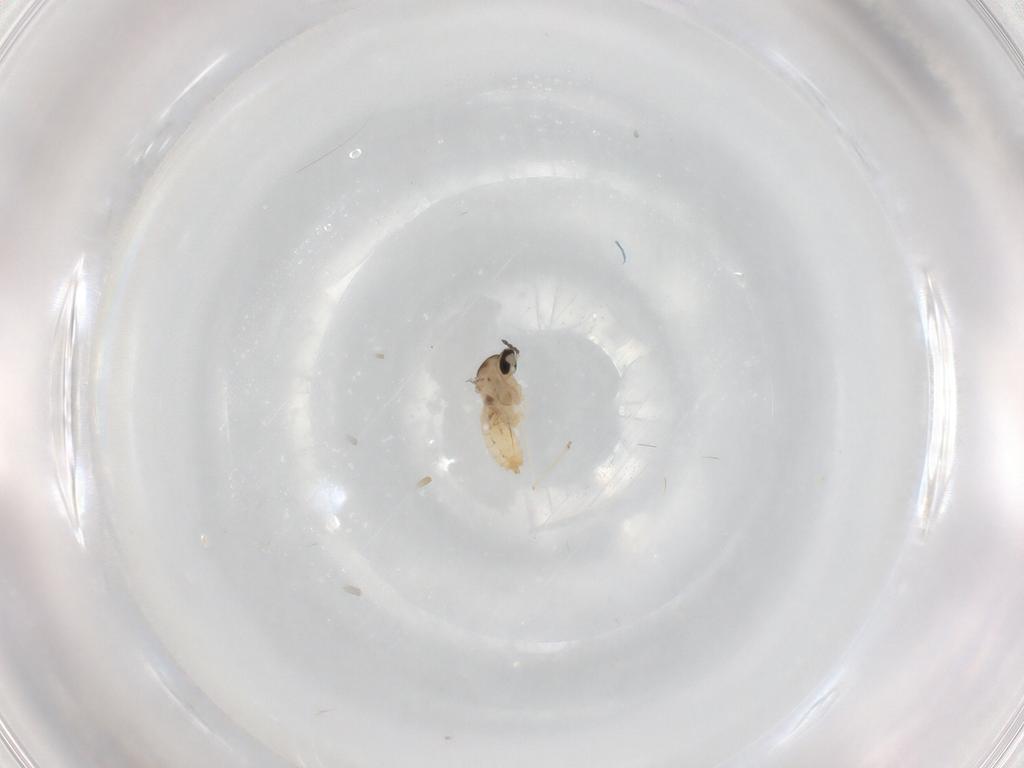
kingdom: Animalia
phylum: Arthropoda
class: Insecta
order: Diptera
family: Cecidomyiidae
